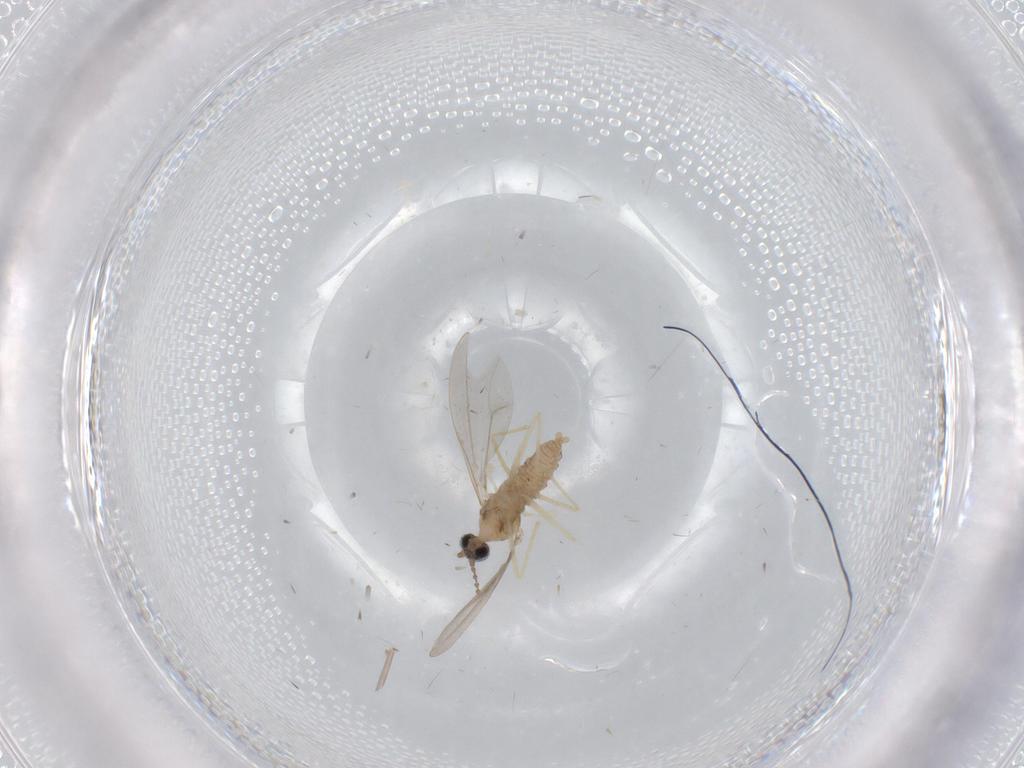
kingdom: Animalia
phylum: Arthropoda
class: Insecta
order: Diptera
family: Cecidomyiidae
